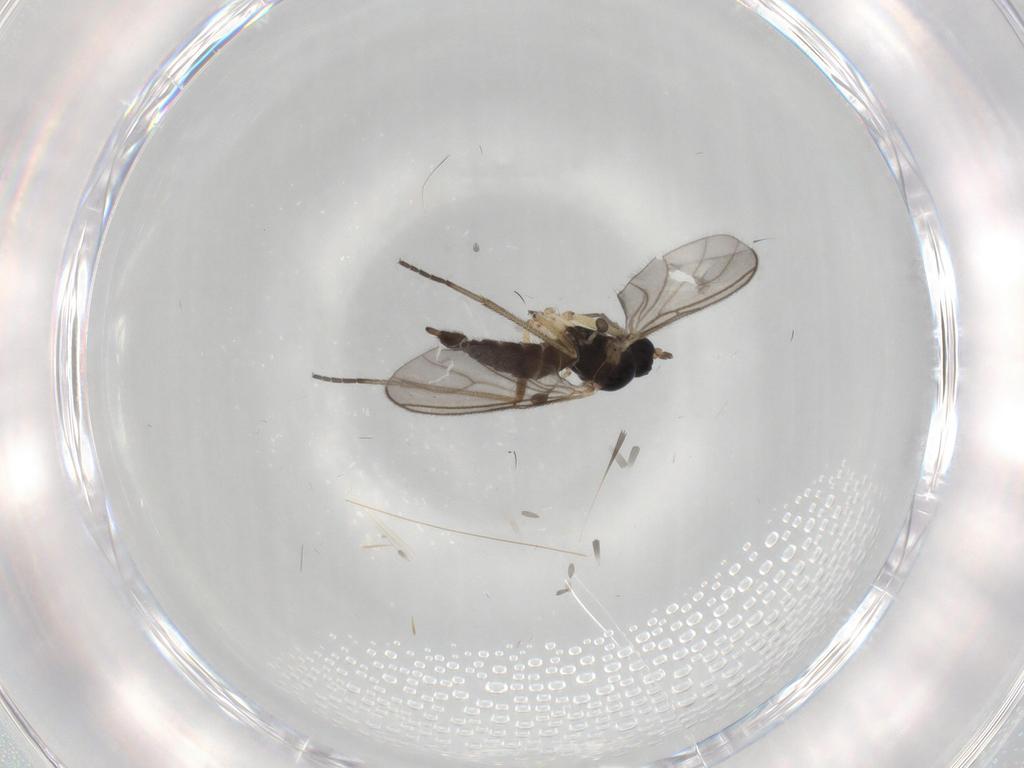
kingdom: Animalia
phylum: Arthropoda
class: Insecta
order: Diptera
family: Sciaridae
